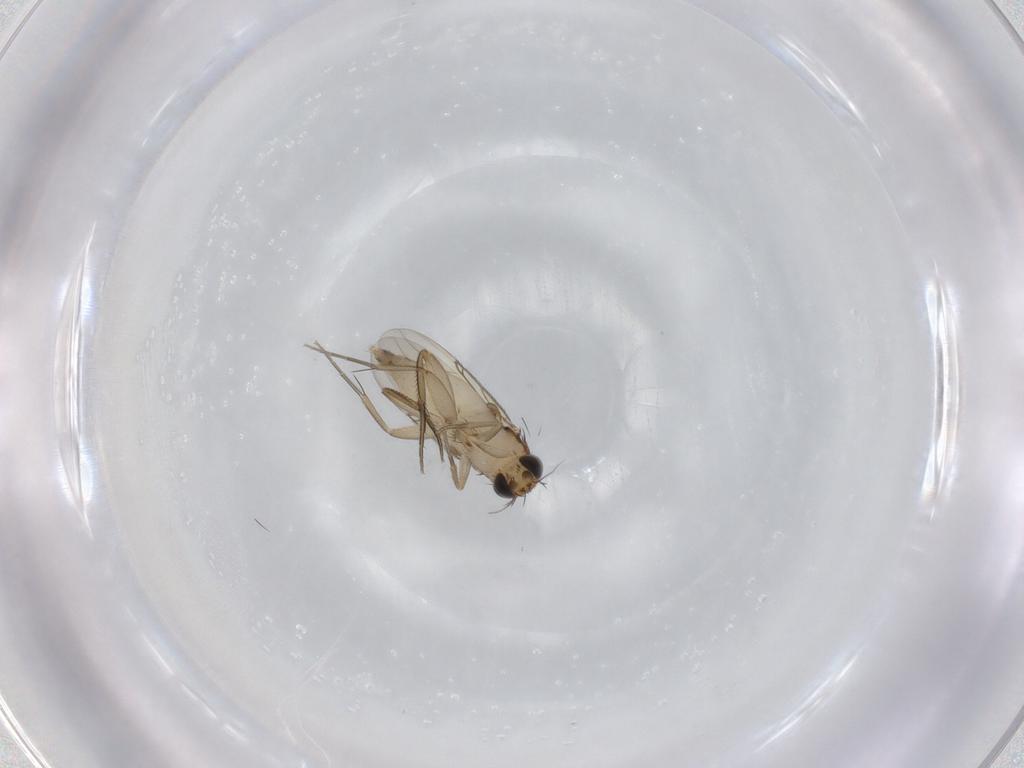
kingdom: Animalia
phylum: Arthropoda
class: Insecta
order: Diptera
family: Phoridae
